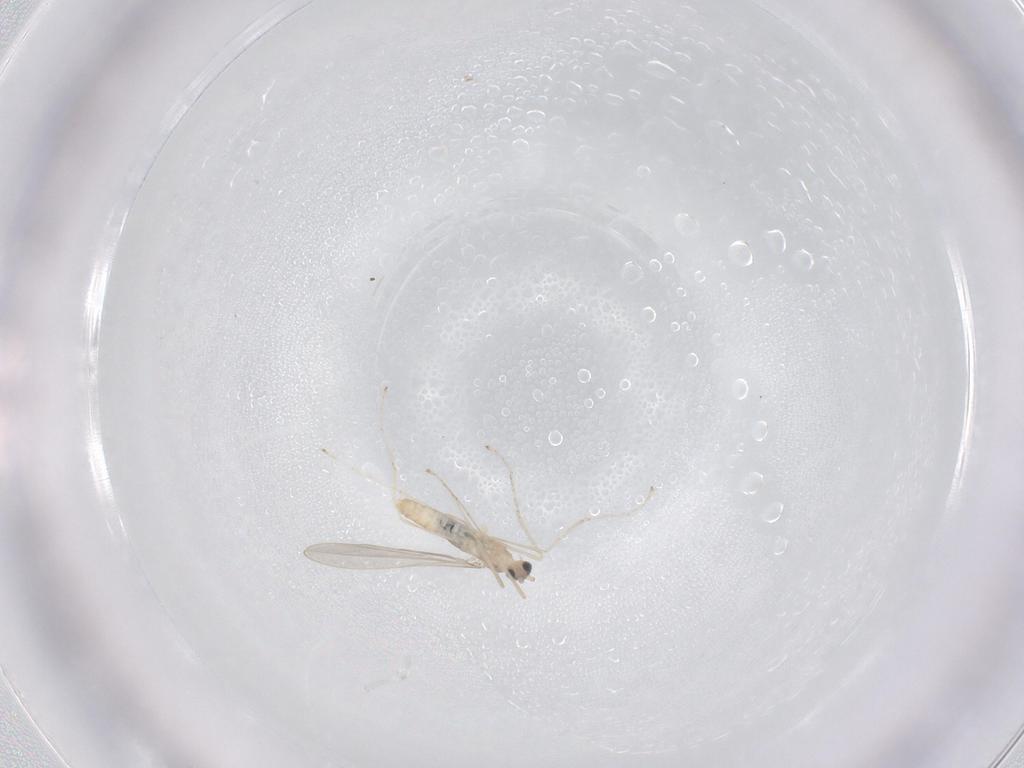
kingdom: Animalia
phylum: Arthropoda
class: Insecta
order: Diptera
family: Cecidomyiidae
